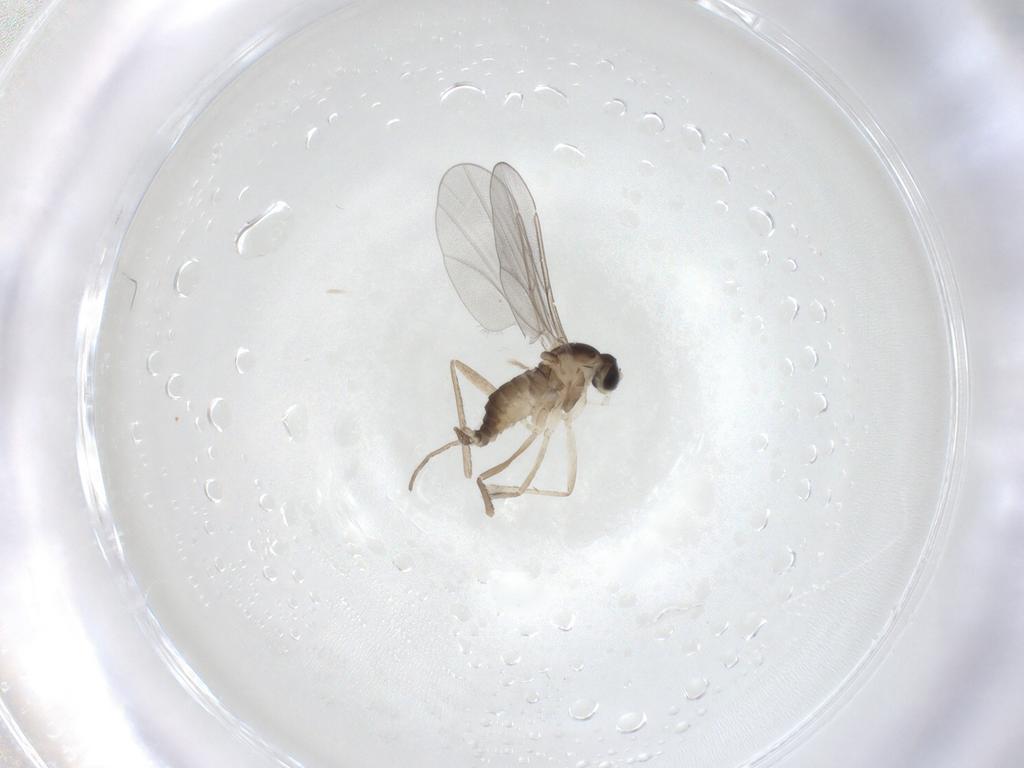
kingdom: Animalia
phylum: Arthropoda
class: Insecta
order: Diptera
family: Cecidomyiidae
